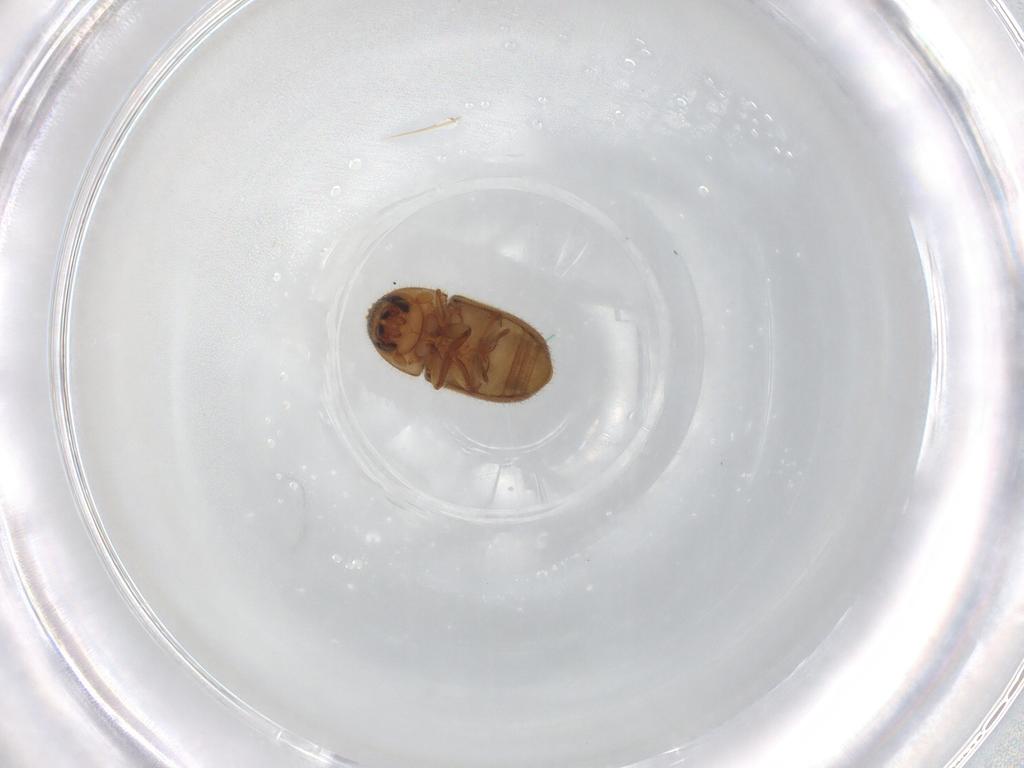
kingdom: Animalia
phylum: Arthropoda
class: Insecta
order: Coleoptera
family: Curculionidae
